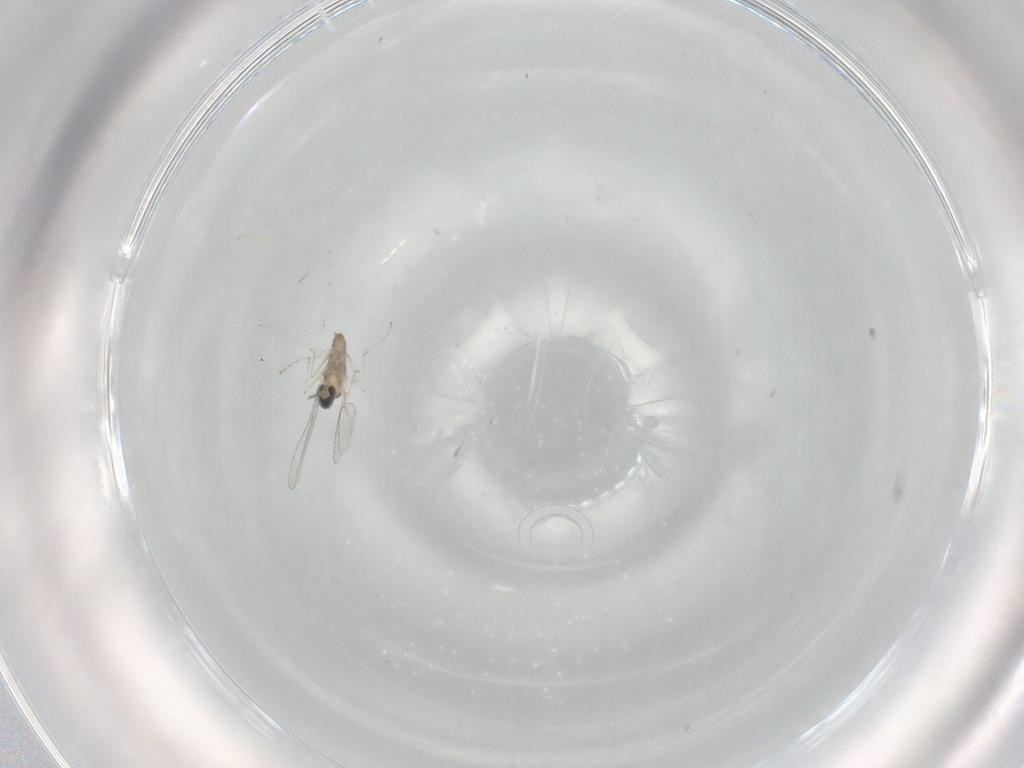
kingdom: Animalia
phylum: Arthropoda
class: Insecta
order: Diptera
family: Cecidomyiidae
